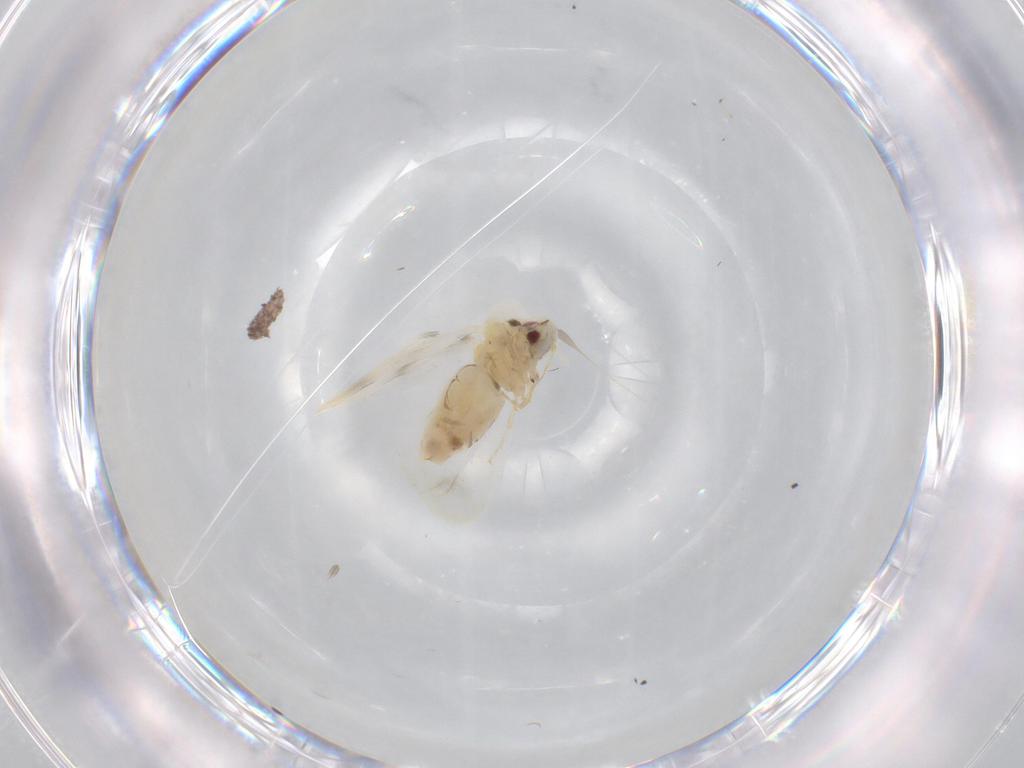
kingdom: Animalia
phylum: Arthropoda
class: Insecta
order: Hemiptera
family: Aleyrodidae
